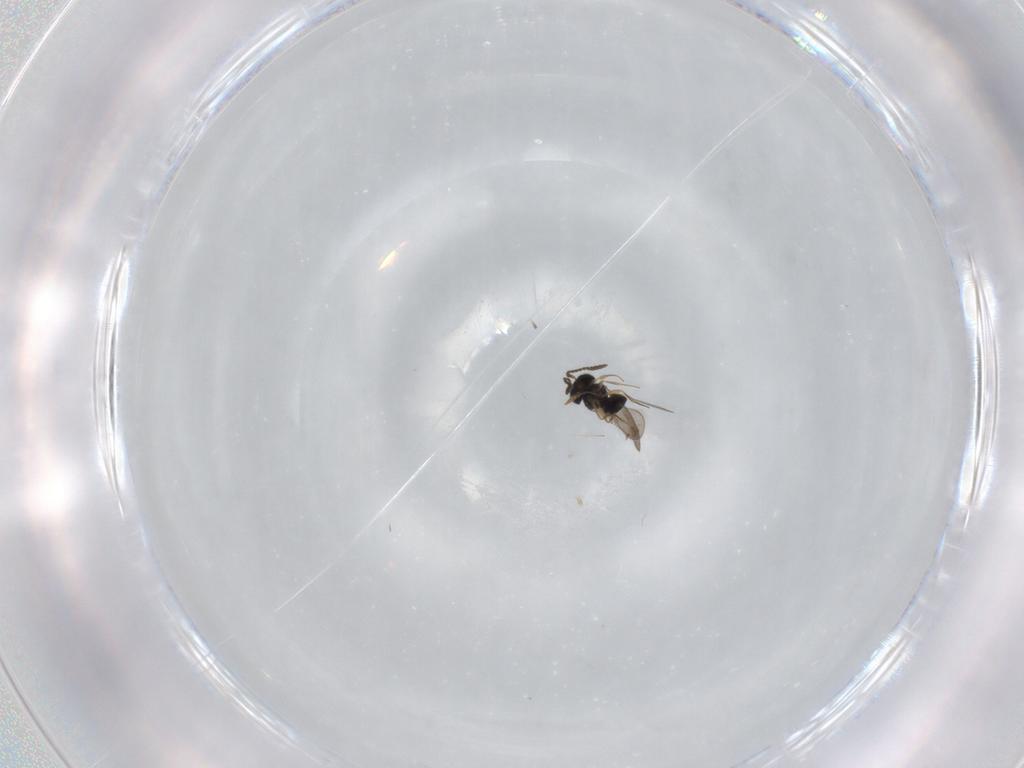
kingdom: Animalia
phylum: Arthropoda
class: Insecta
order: Hymenoptera
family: Scelionidae
